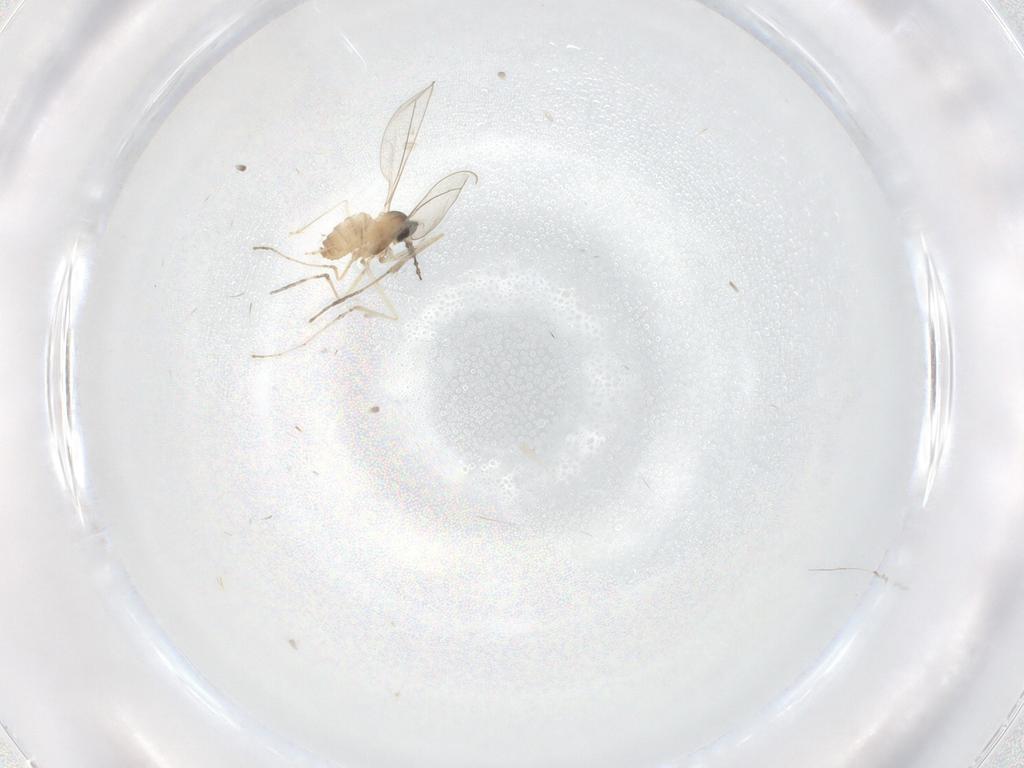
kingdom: Animalia
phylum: Arthropoda
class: Insecta
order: Diptera
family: Cecidomyiidae
